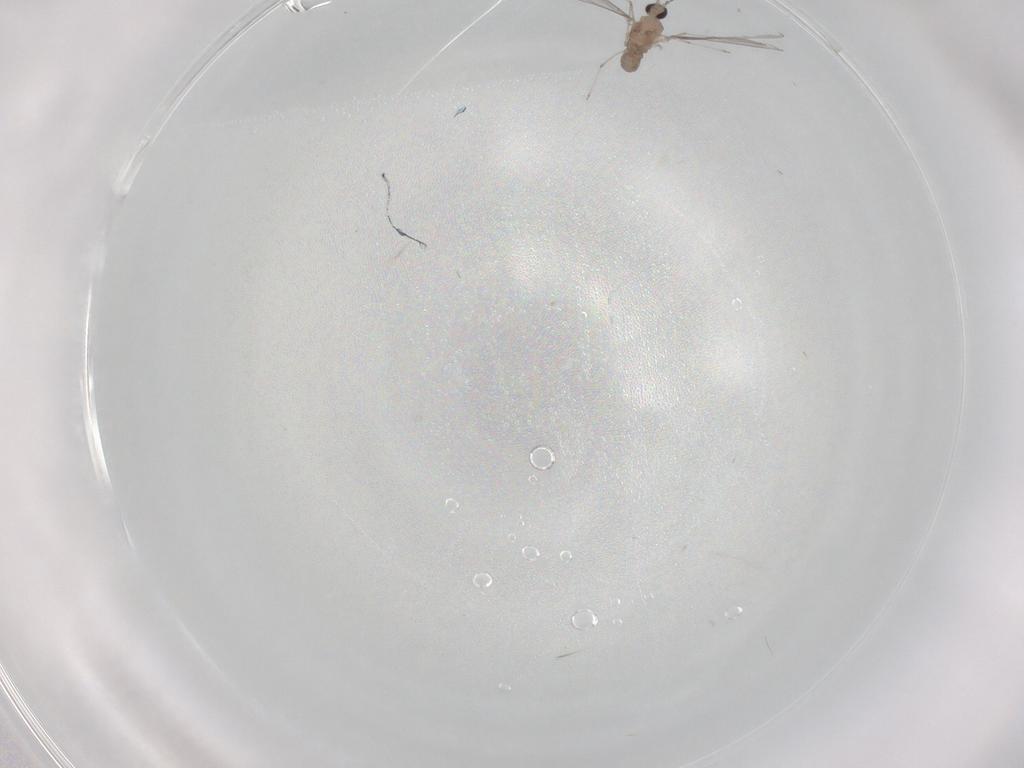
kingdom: Animalia
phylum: Arthropoda
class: Insecta
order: Diptera
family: Cecidomyiidae
